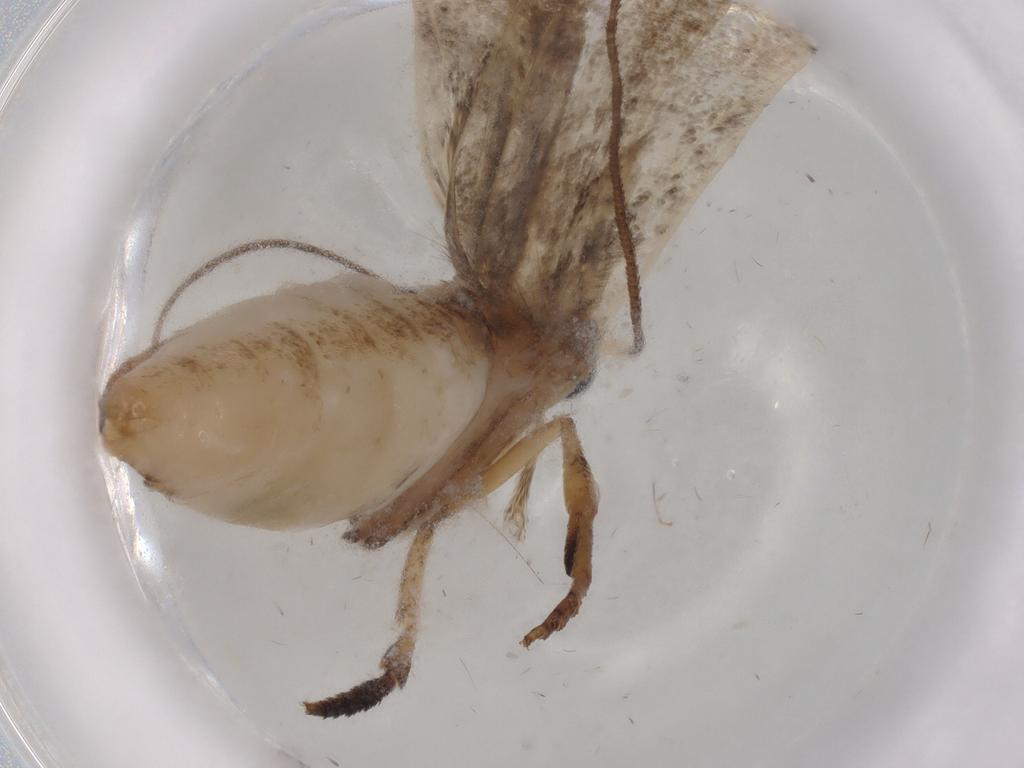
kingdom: Animalia
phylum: Arthropoda
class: Insecta
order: Lepidoptera
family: Yponomeutidae
